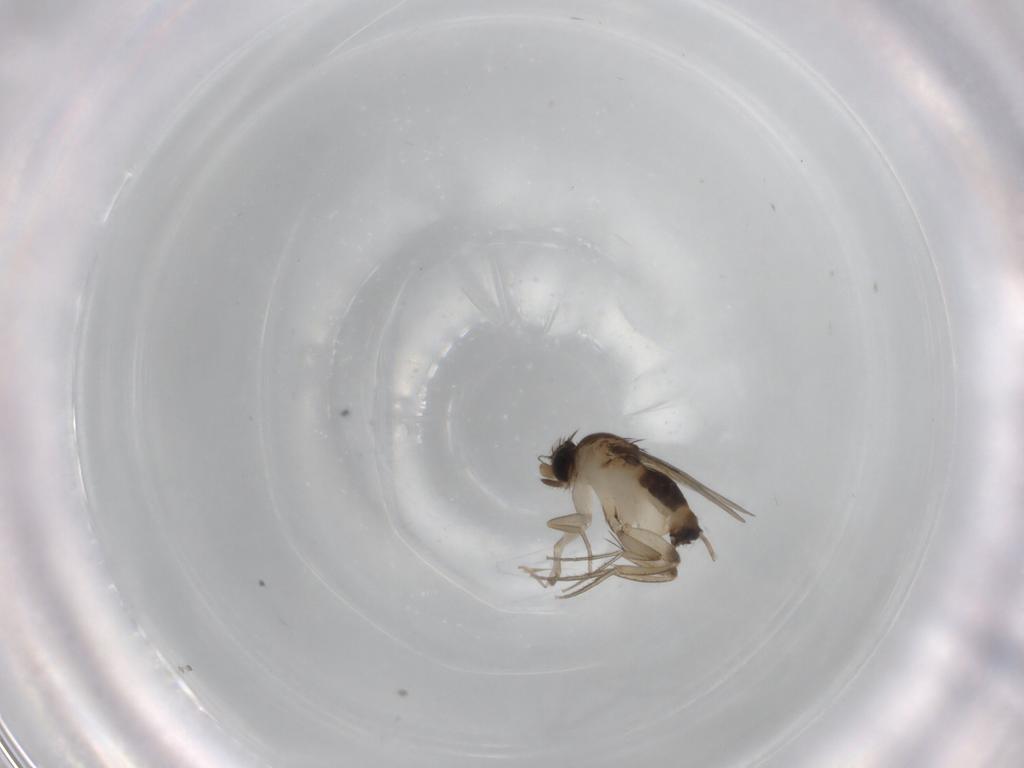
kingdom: Animalia
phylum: Arthropoda
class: Insecta
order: Diptera
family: Phoridae
